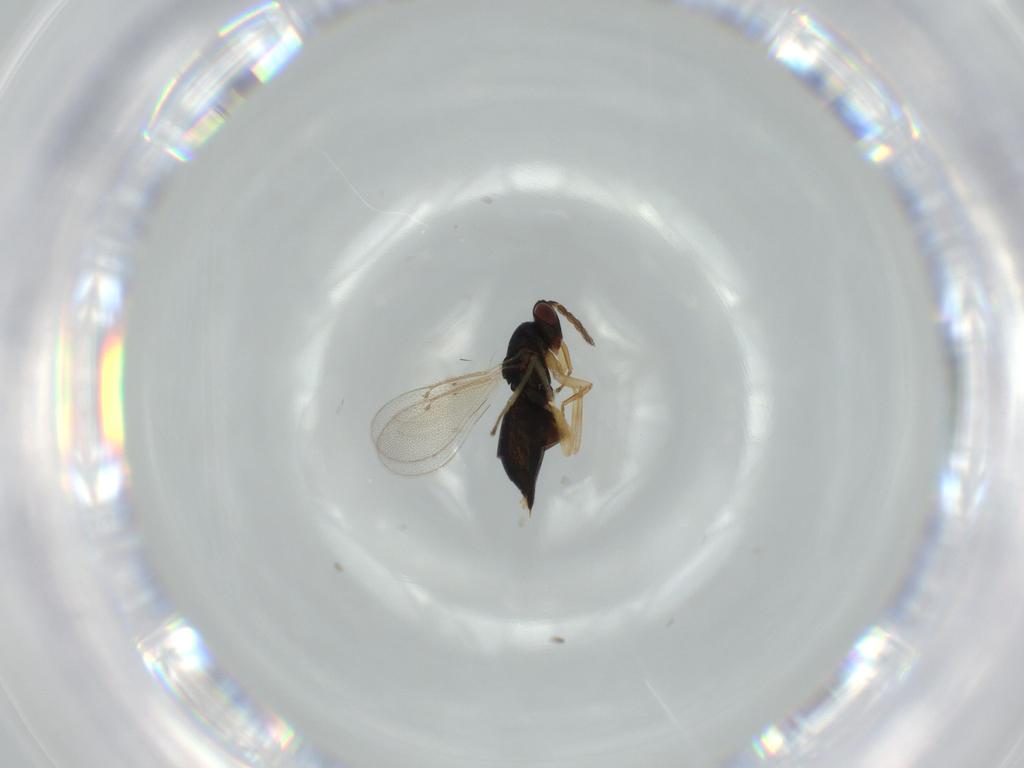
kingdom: Animalia
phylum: Arthropoda
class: Insecta
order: Hymenoptera
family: Eulophidae
